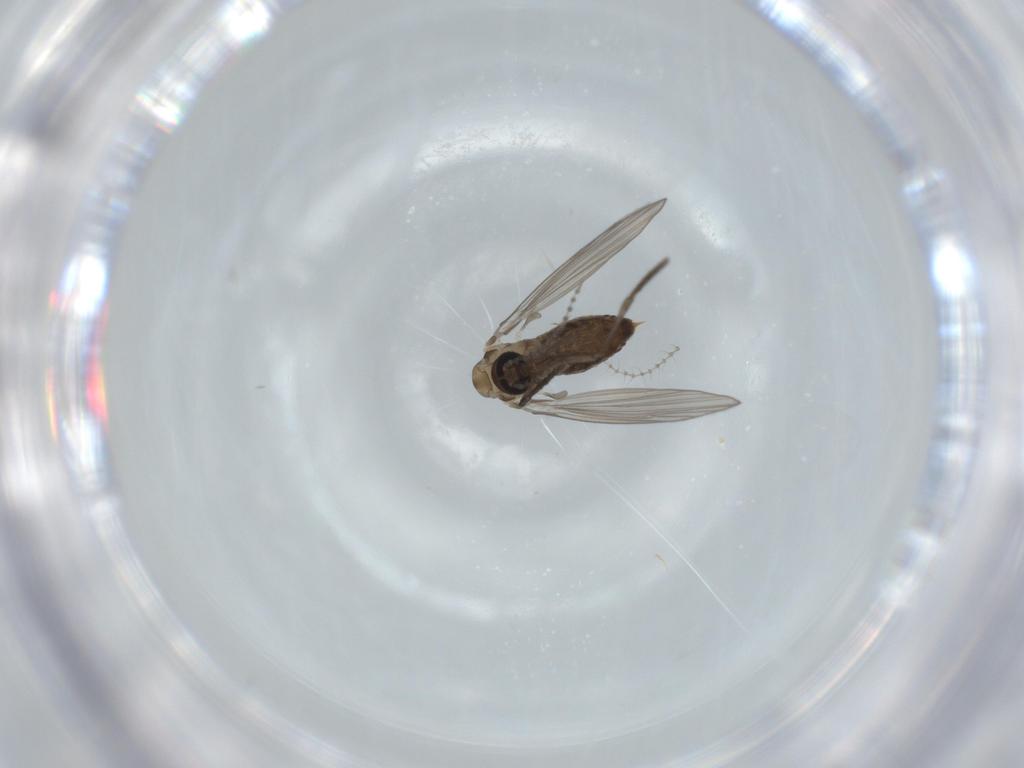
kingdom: Animalia
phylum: Arthropoda
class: Insecta
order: Diptera
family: Sciaridae
